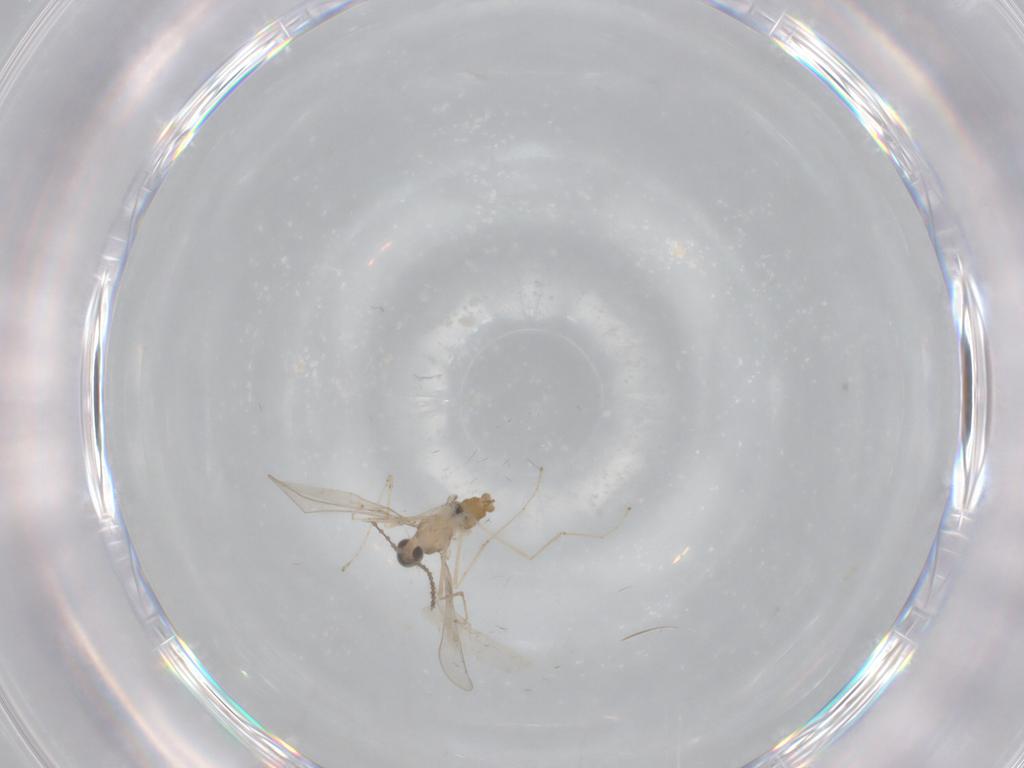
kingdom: Animalia
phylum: Arthropoda
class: Insecta
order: Diptera
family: Cecidomyiidae
